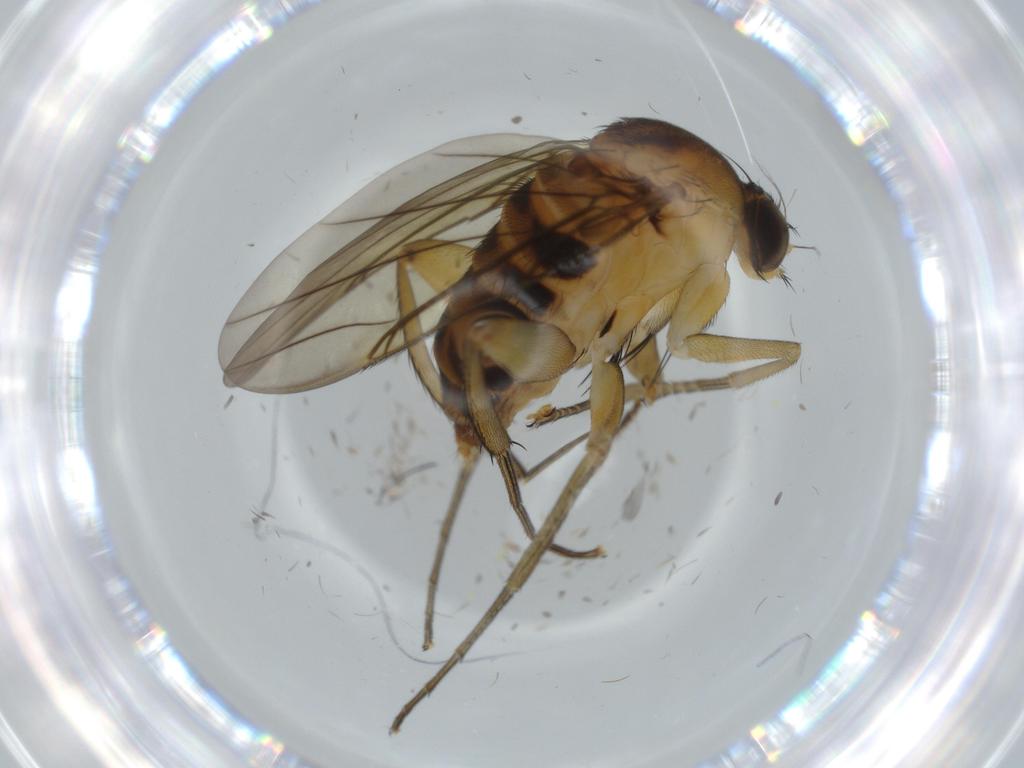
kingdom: Animalia
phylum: Arthropoda
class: Insecta
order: Diptera
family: Phoridae
